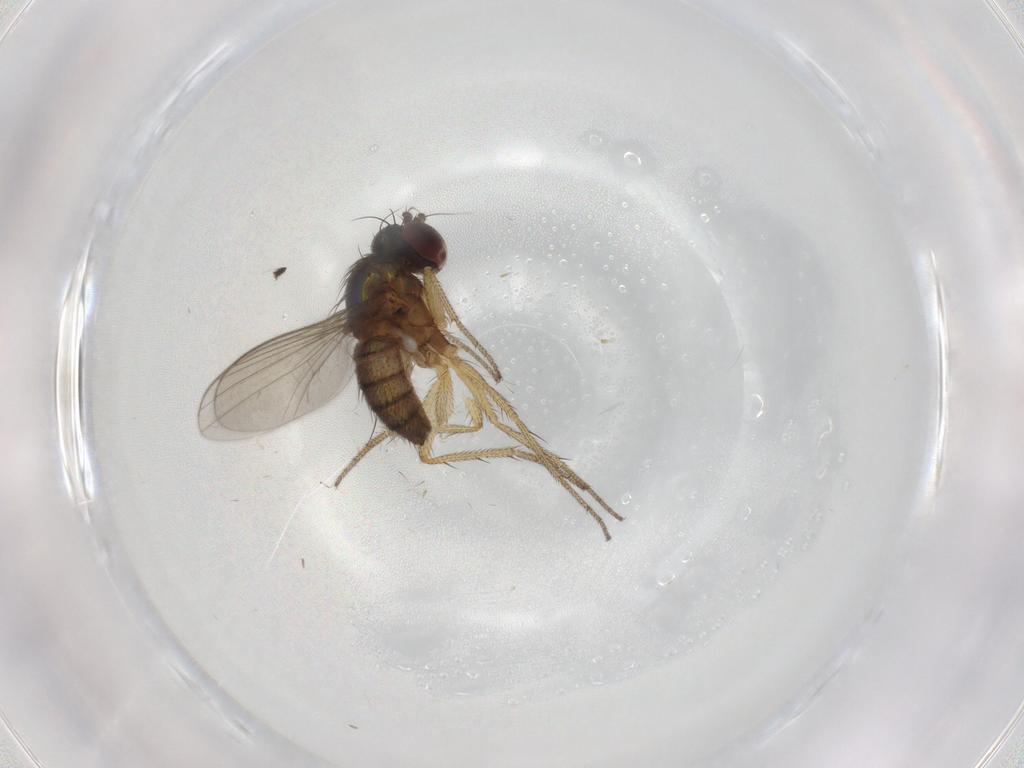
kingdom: Animalia
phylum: Arthropoda
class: Insecta
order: Diptera
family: Dolichopodidae
